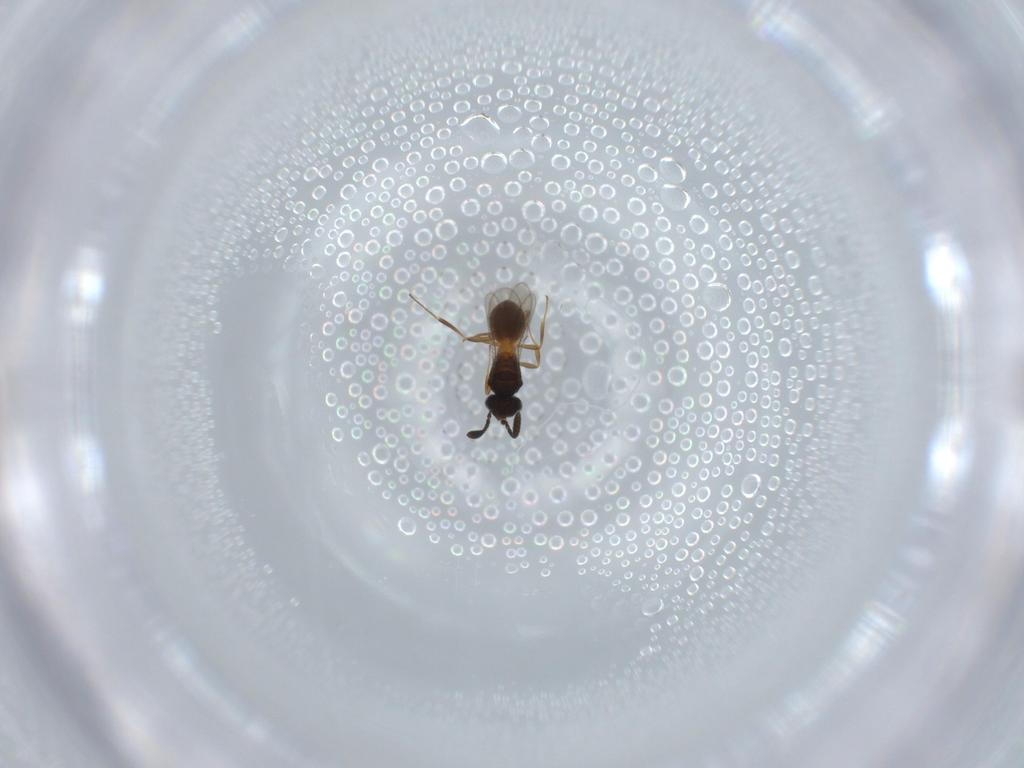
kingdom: Animalia
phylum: Arthropoda
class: Insecta
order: Hymenoptera
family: Scelionidae
